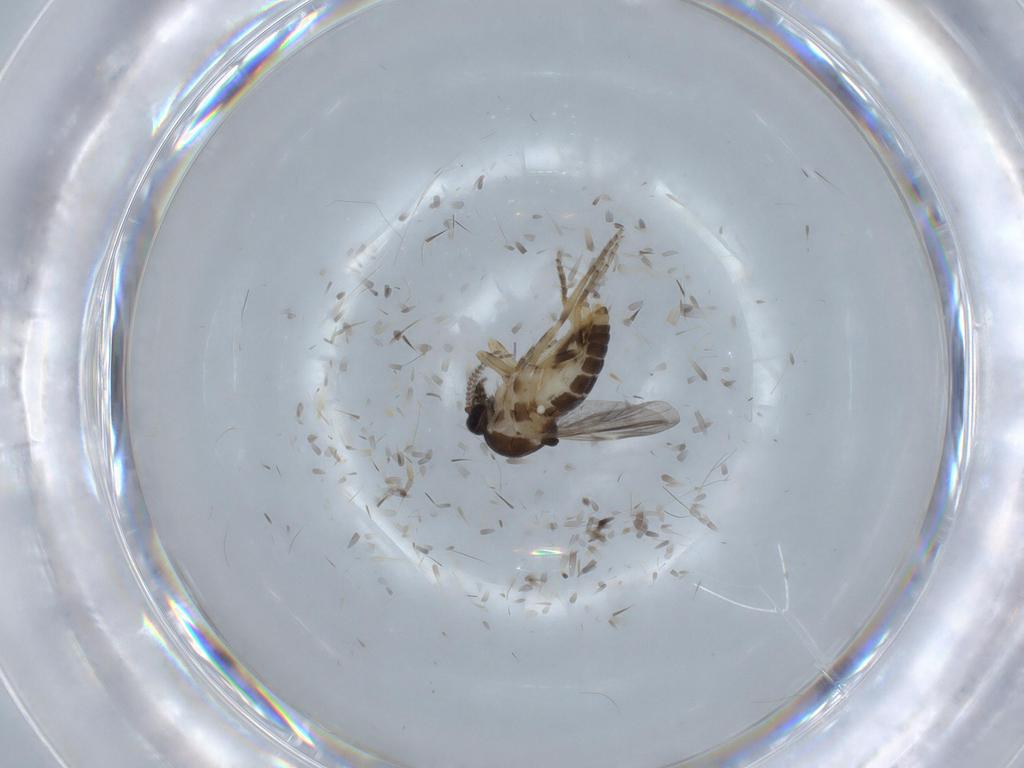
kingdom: Animalia
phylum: Arthropoda
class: Insecta
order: Diptera
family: Ceratopogonidae
